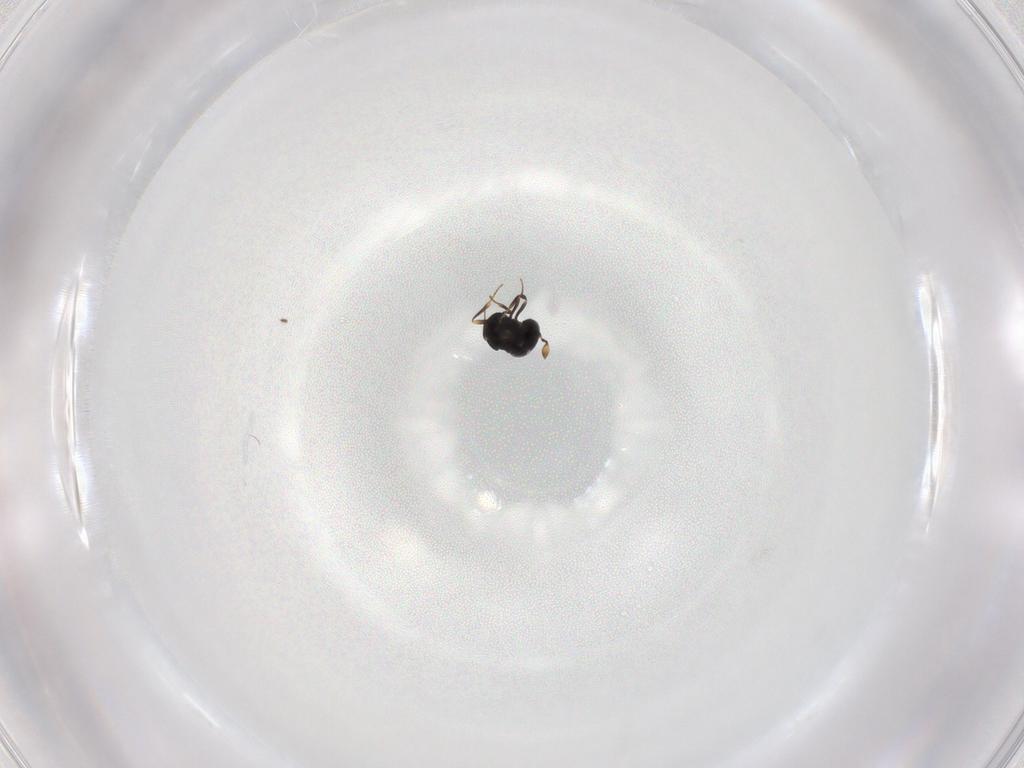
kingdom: Animalia
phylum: Arthropoda
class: Insecta
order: Hymenoptera
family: Scelionidae
